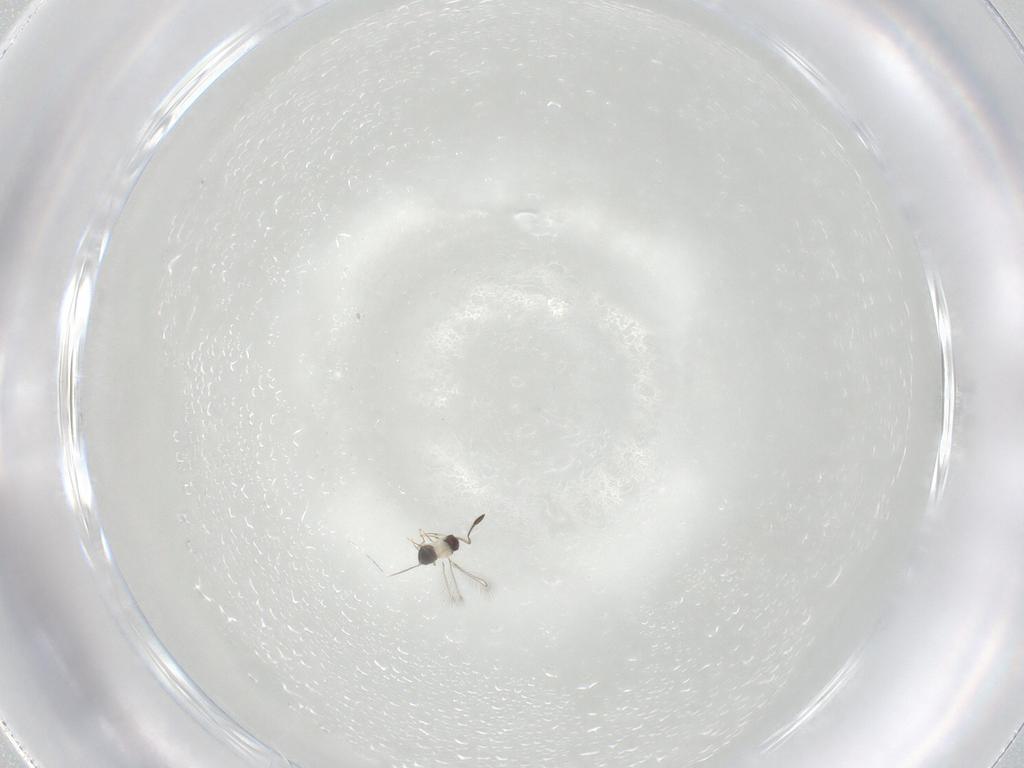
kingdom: Animalia
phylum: Arthropoda
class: Insecta
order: Hymenoptera
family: Mymaridae
